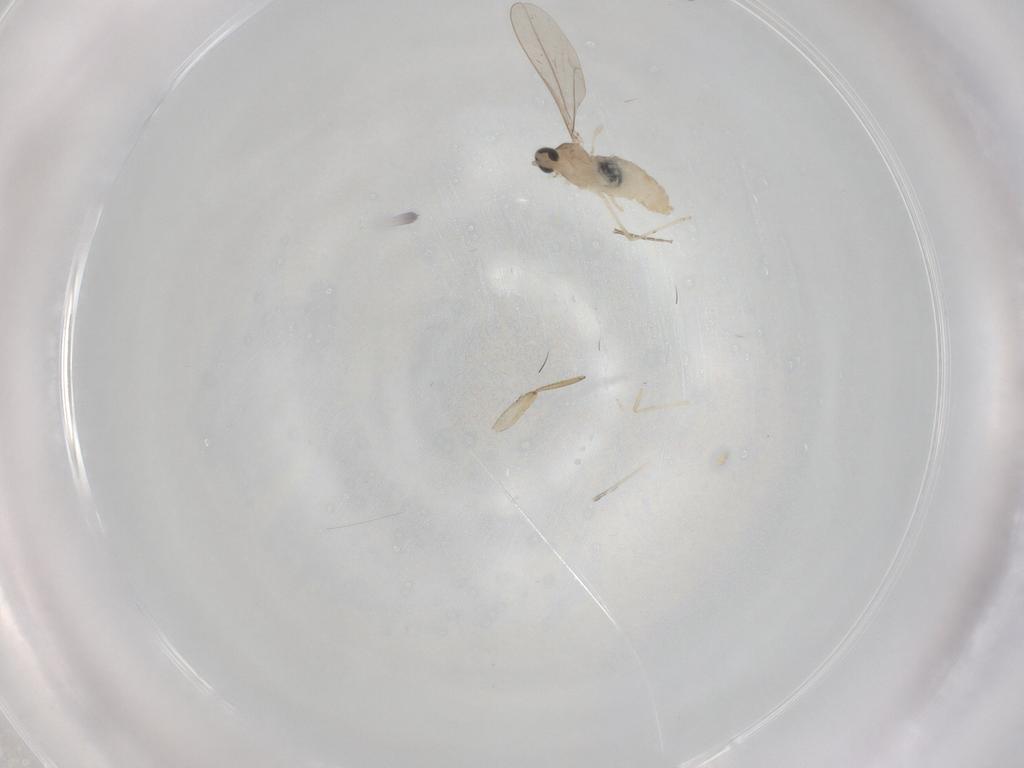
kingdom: Animalia
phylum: Arthropoda
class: Insecta
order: Diptera
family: Cecidomyiidae
